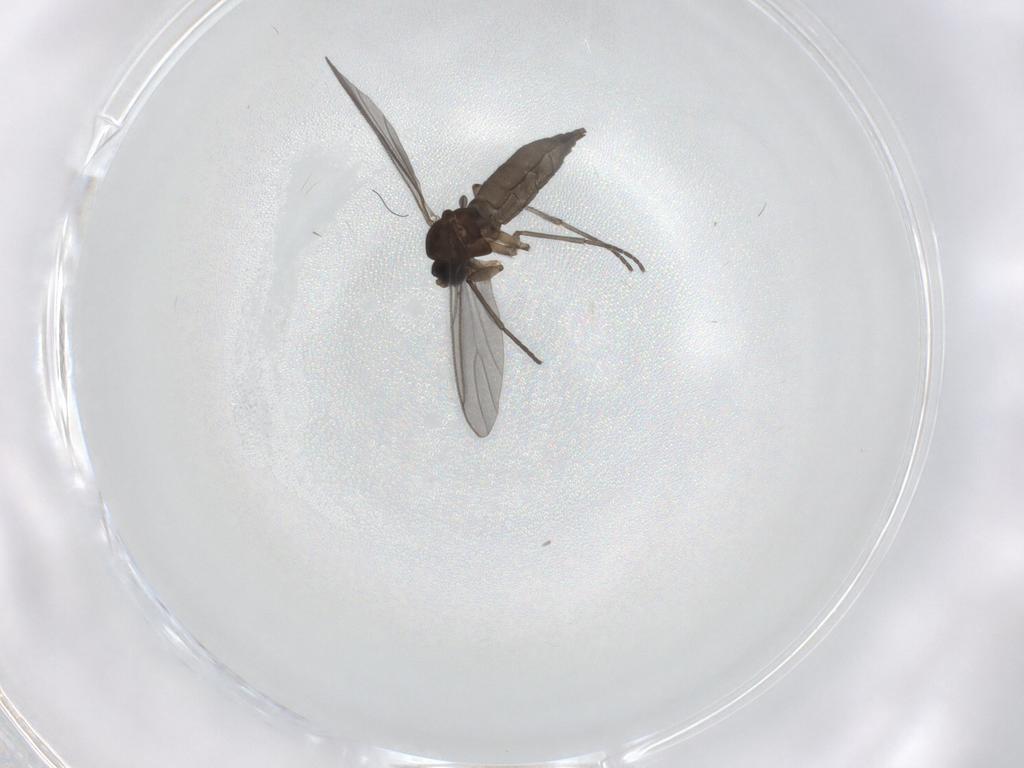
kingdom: Animalia
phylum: Arthropoda
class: Insecta
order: Diptera
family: Sciaridae
